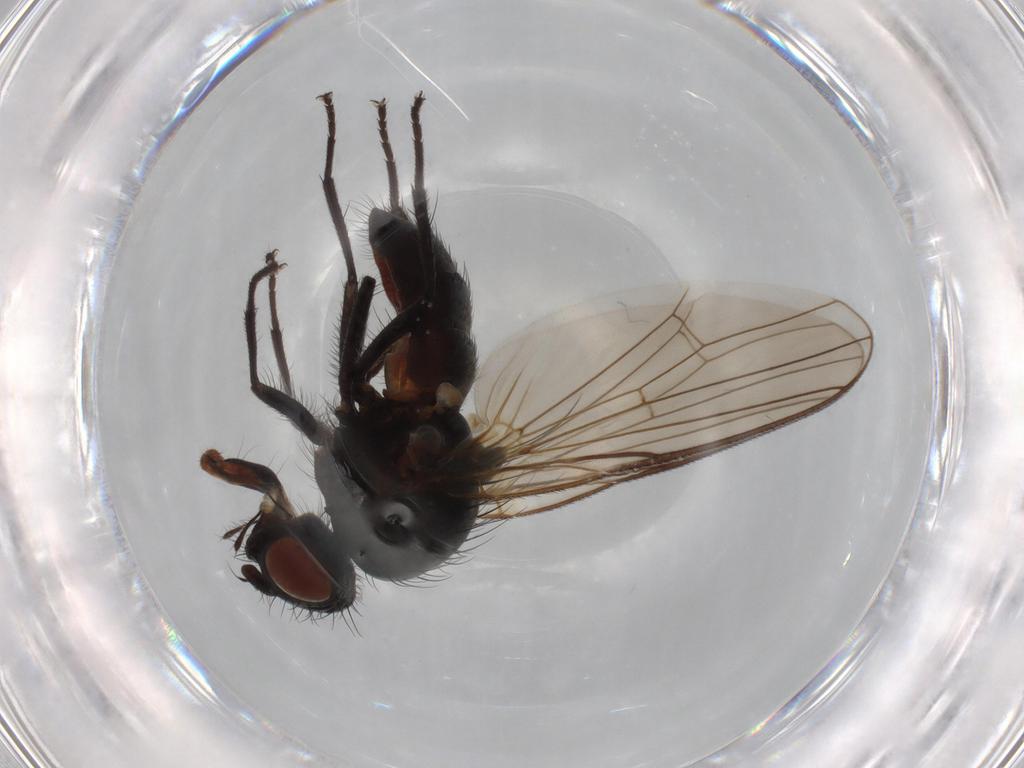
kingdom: Animalia
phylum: Arthropoda
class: Insecta
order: Diptera
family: Anthomyiidae
